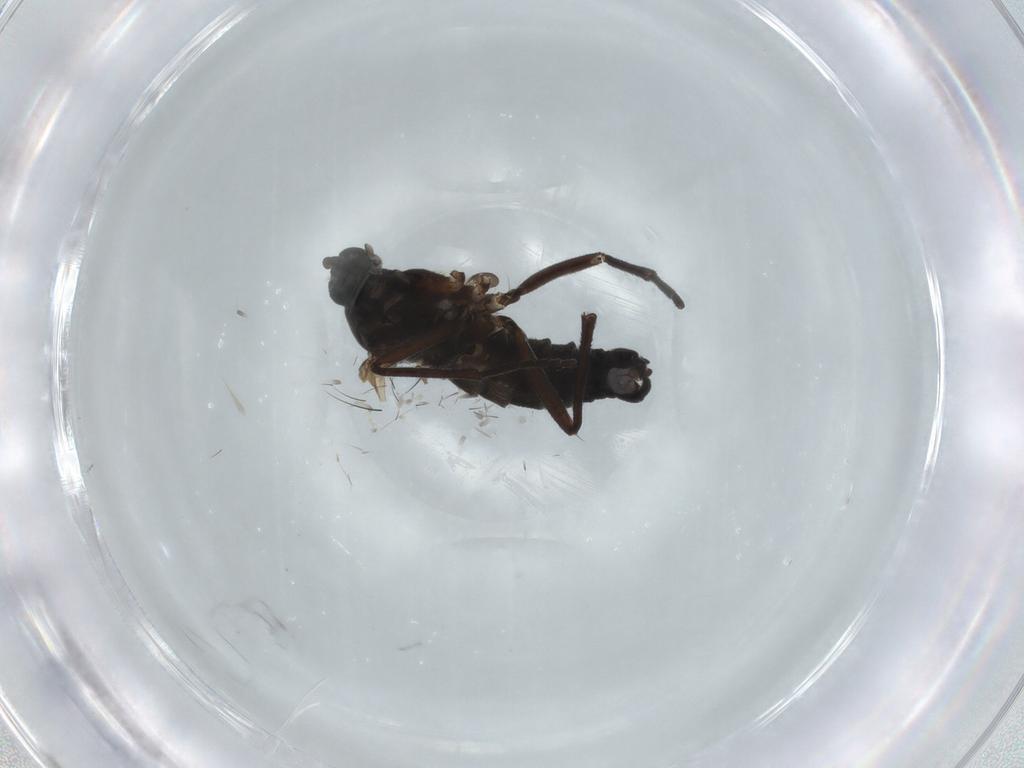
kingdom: Animalia
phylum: Arthropoda
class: Insecta
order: Diptera
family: Sciaridae
